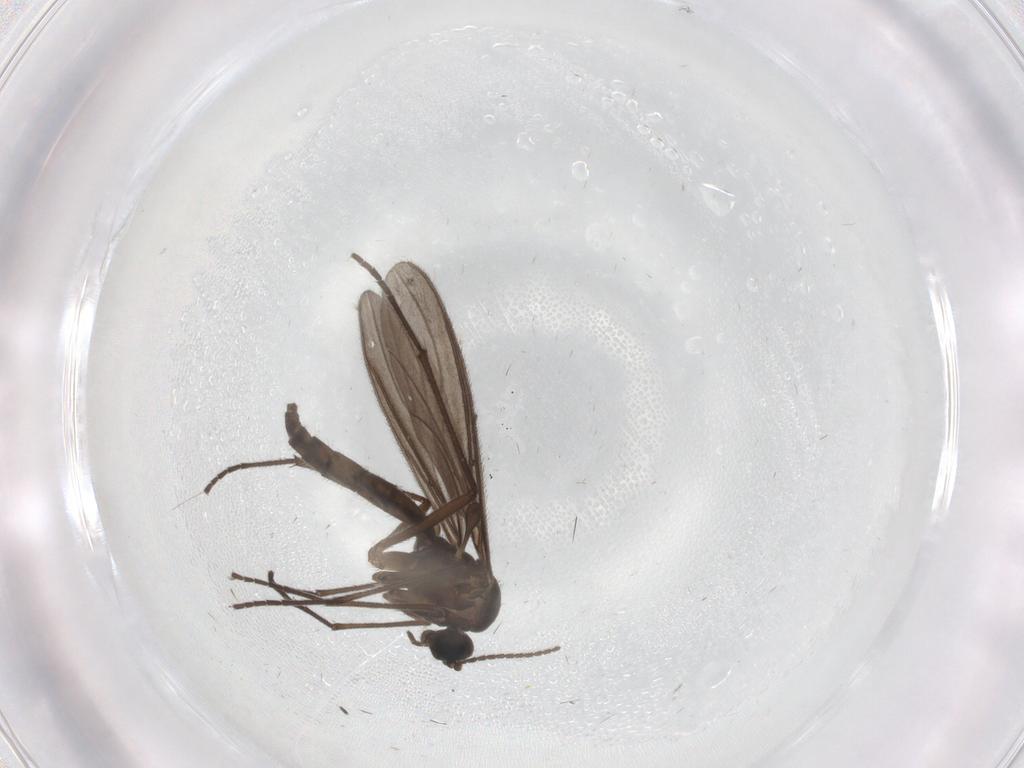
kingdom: Animalia
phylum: Arthropoda
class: Insecta
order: Diptera
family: Sciaridae
